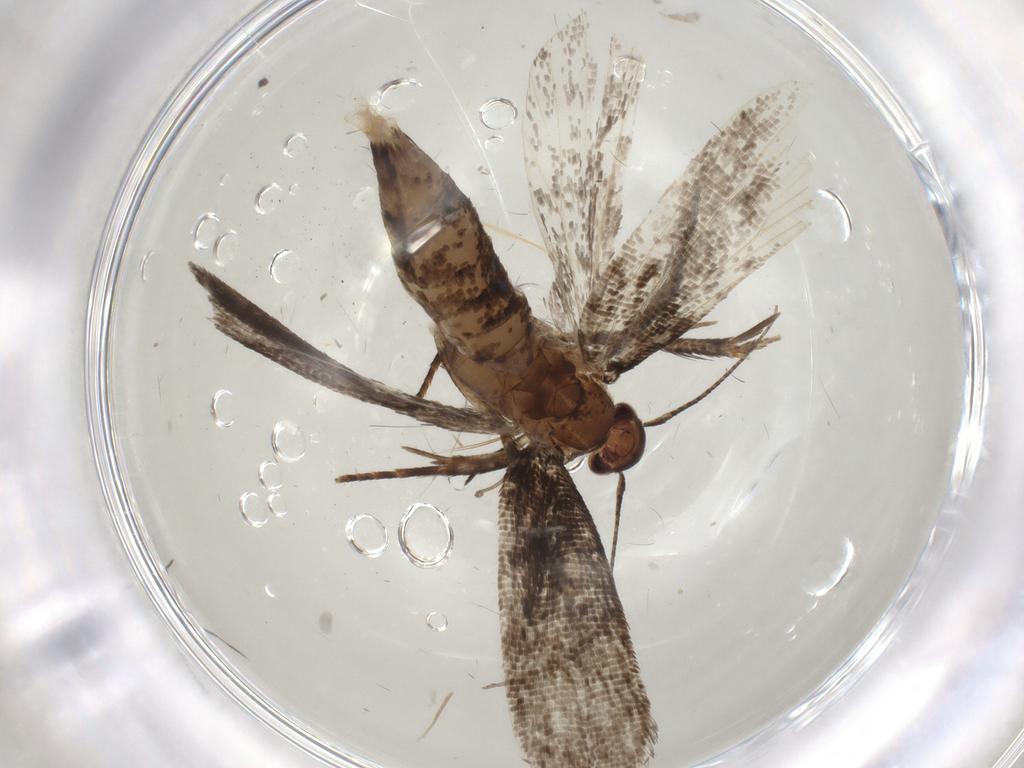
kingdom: Animalia
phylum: Arthropoda
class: Insecta
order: Lepidoptera
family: Gelechiidae
